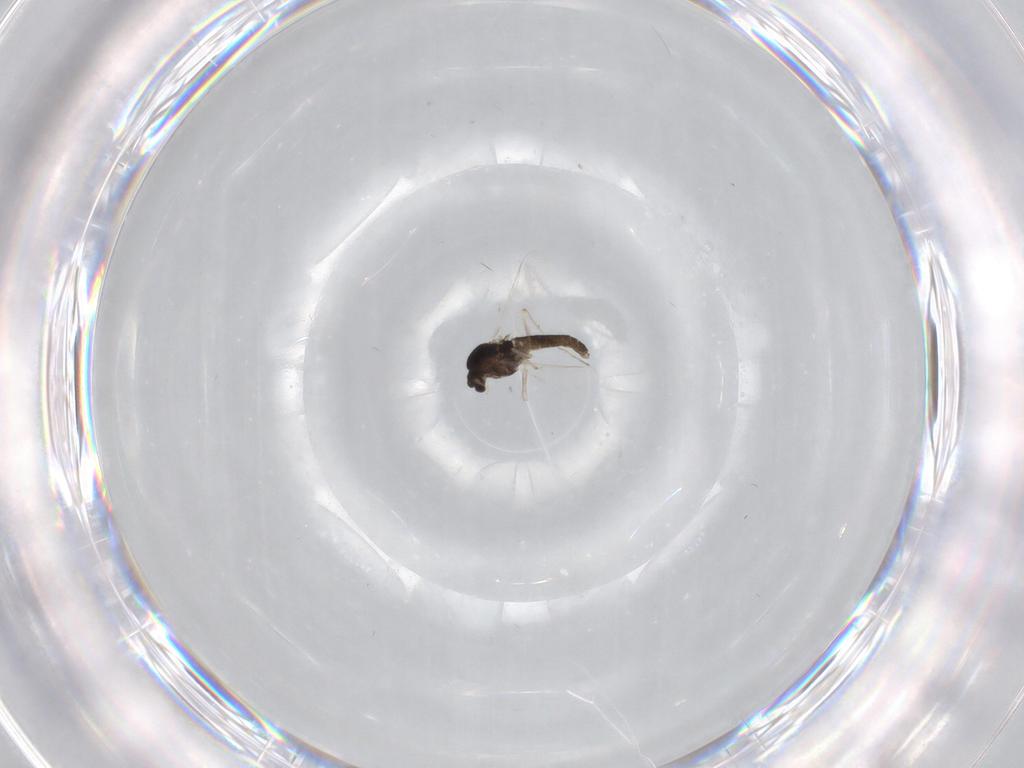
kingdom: Animalia
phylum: Arthropoda
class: Insecta
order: Diptera
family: Chironomidae
